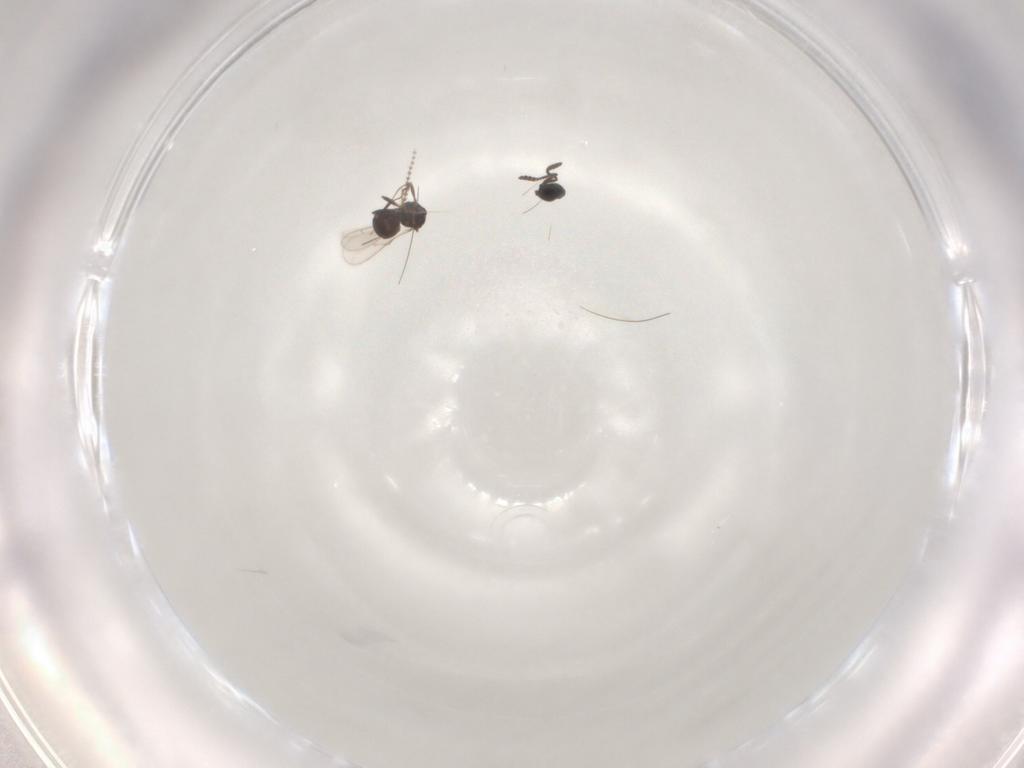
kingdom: Animalia
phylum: Arthropoda
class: Insecta
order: Hymenoptera
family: Scelionidae
